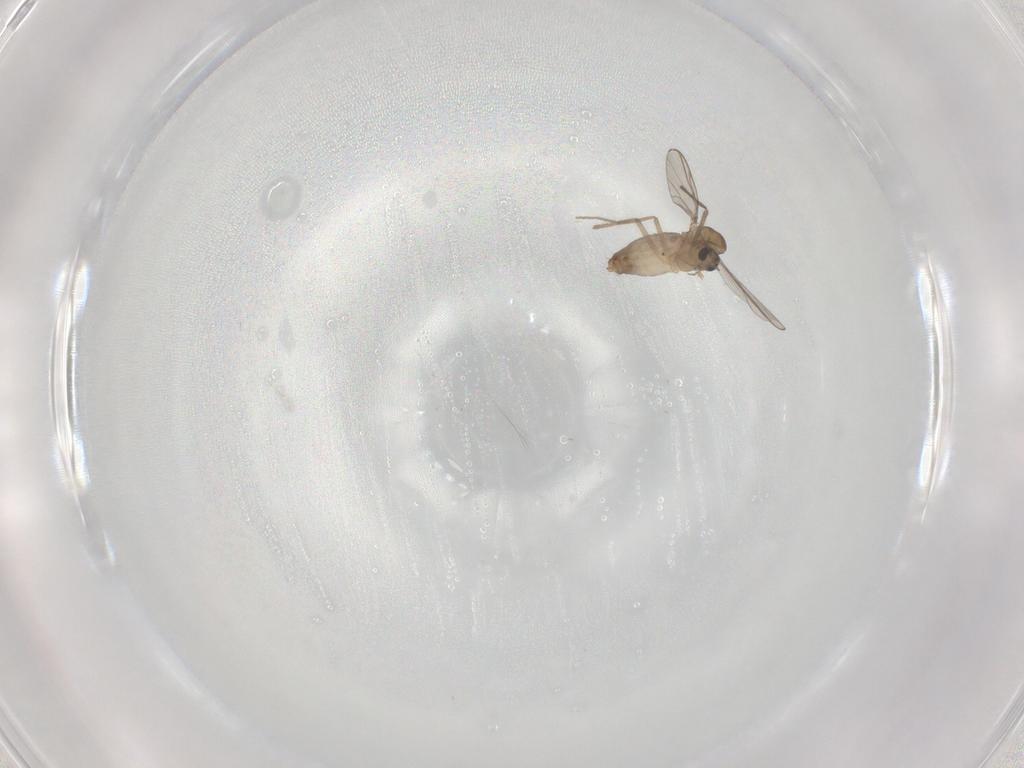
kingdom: Animalia
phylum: Arthropoda
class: Insecta
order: Diptera
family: Chironomidae
